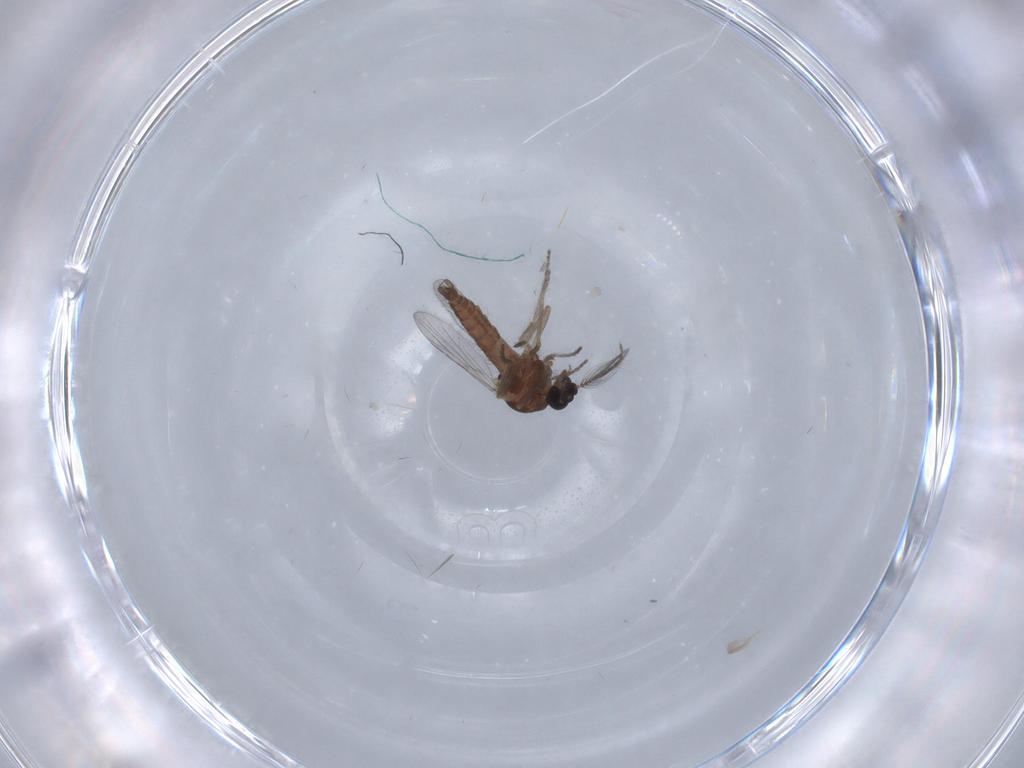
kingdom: Animalia
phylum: Arthropoda
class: Insecta
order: Diptera
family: Ceratopogonidae
